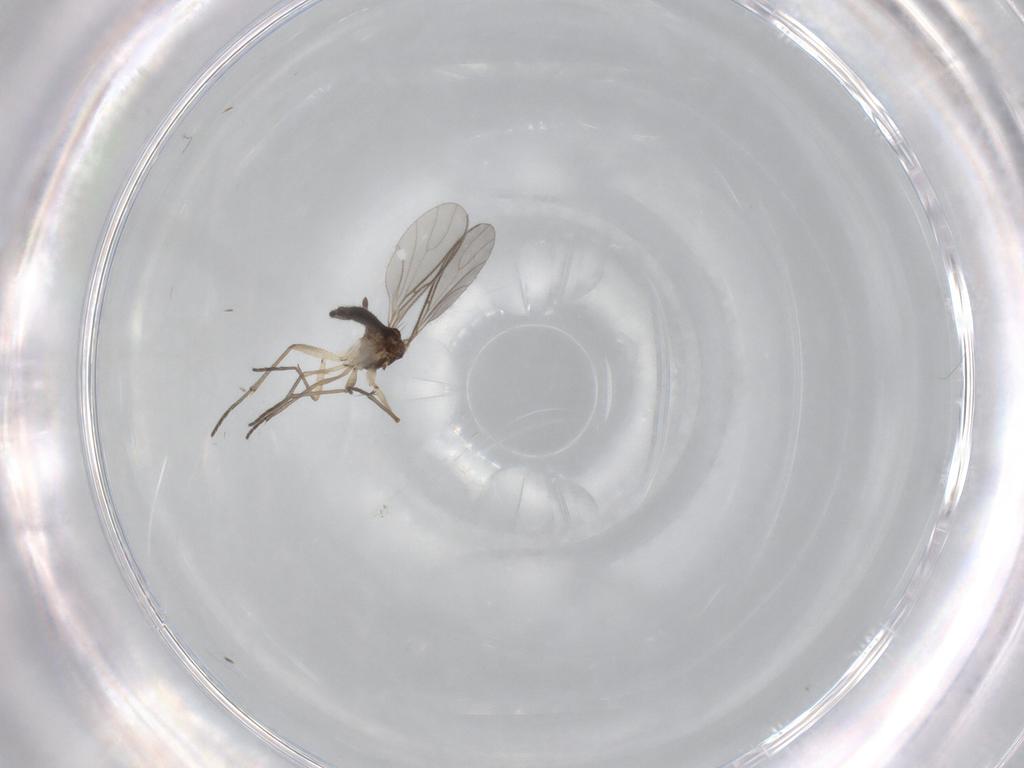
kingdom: Animalia
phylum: Arthropoda
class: Insecta
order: Diptera
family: Sciaridae
